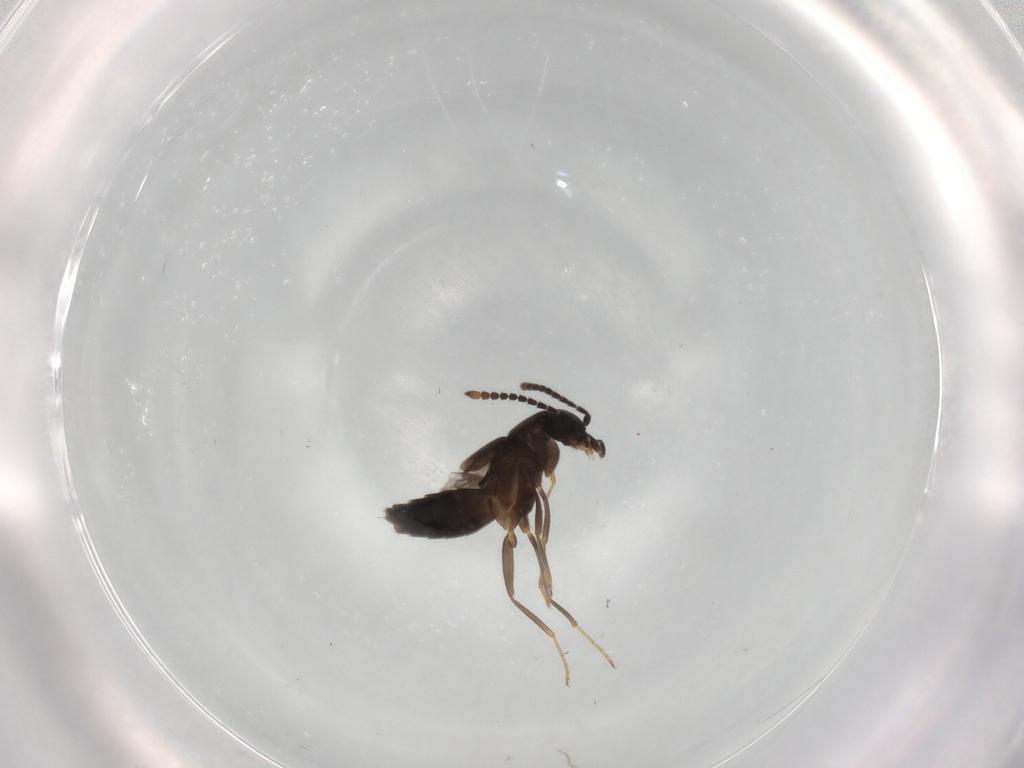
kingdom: Animalia
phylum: Arthropoda
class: Insecta
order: Coleoptera
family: Staphylinidae
